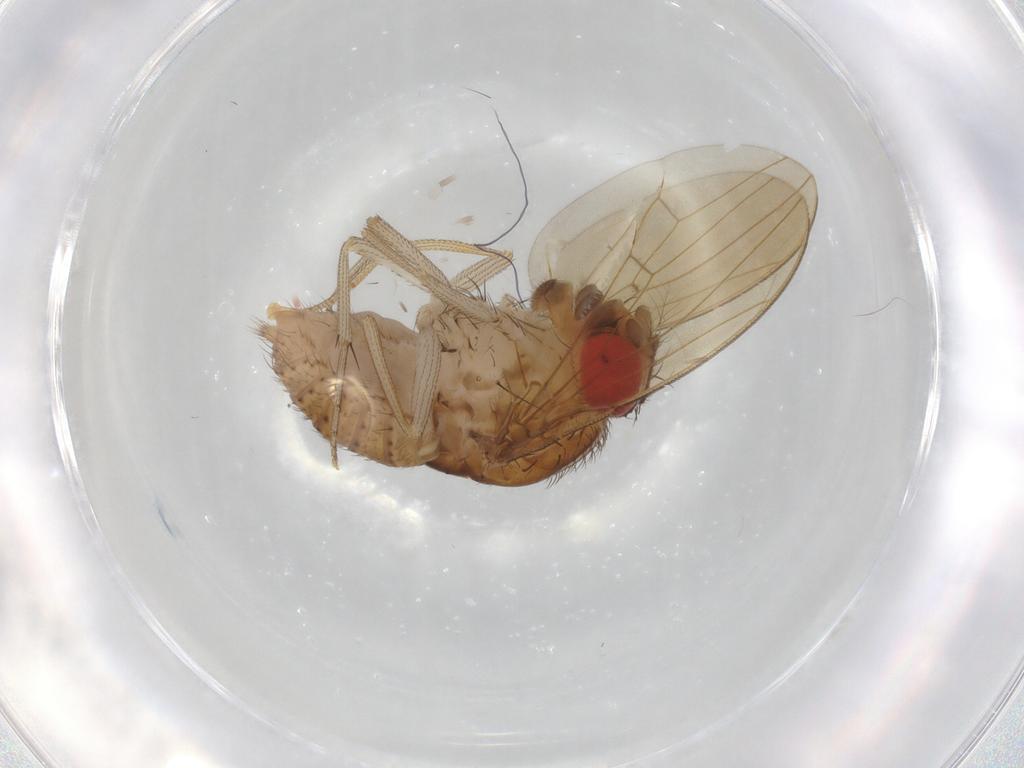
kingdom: Animalia
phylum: Arthropoda
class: Insecta
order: Diptera
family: Drosophilidae
